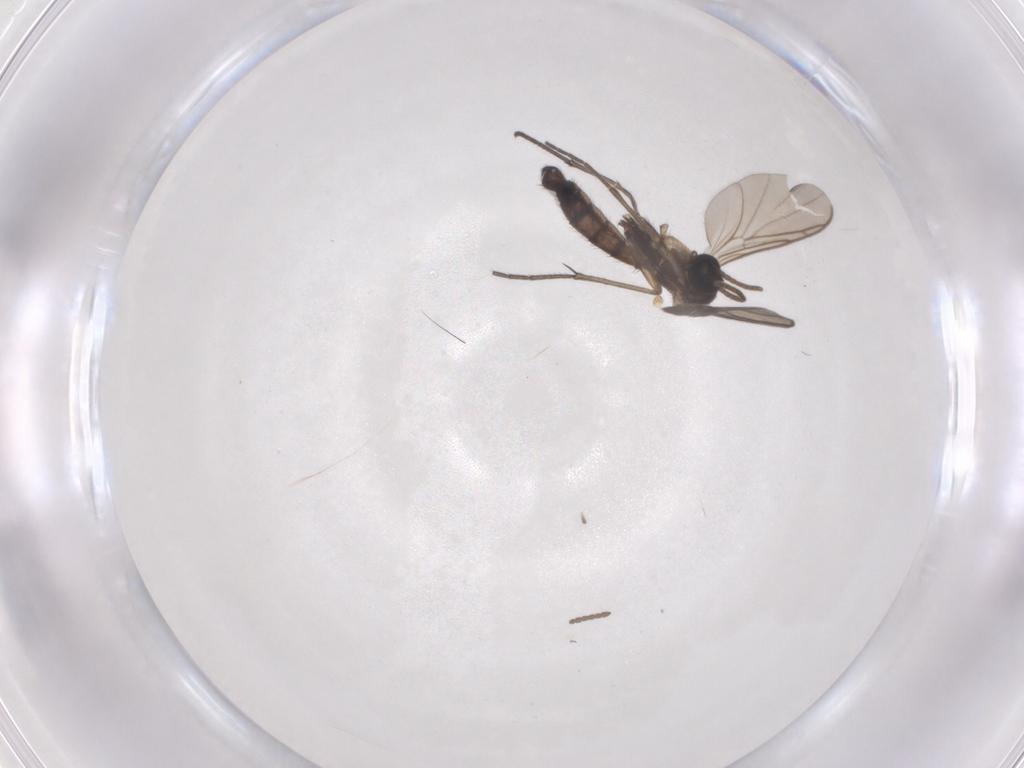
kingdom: Animalia
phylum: Arthropoda
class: Insecta
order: Diptera
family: Keroplatidae
